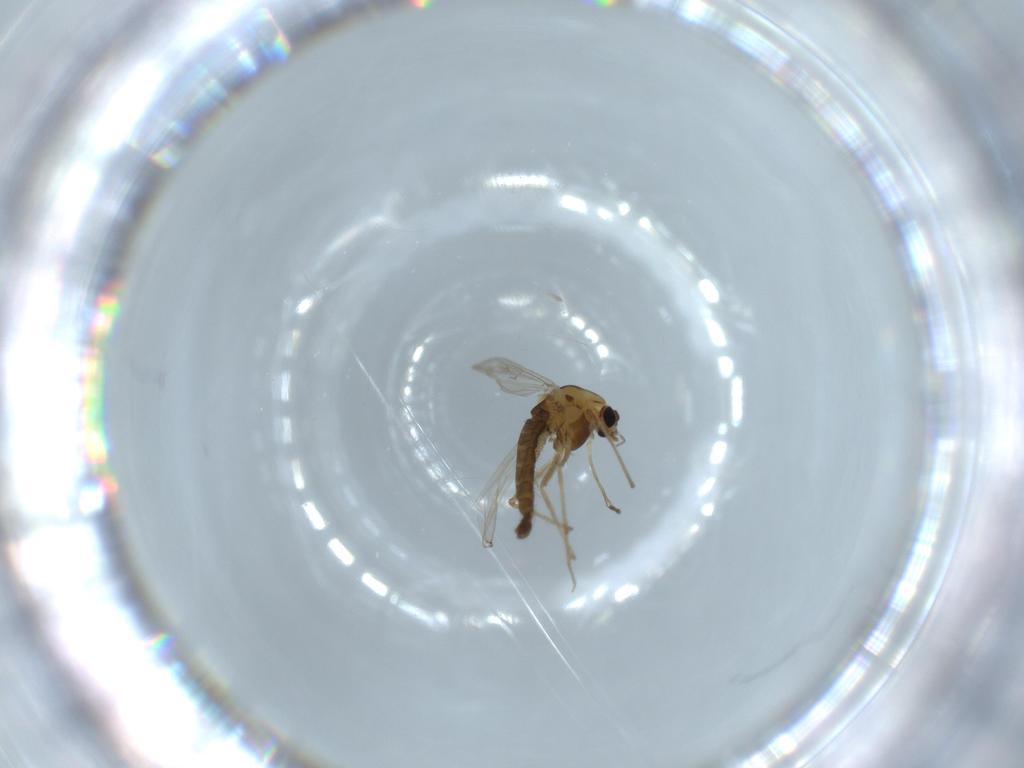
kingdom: Animalia
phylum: Arthropoda
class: Insecta
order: Diptera
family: Chironomidae
